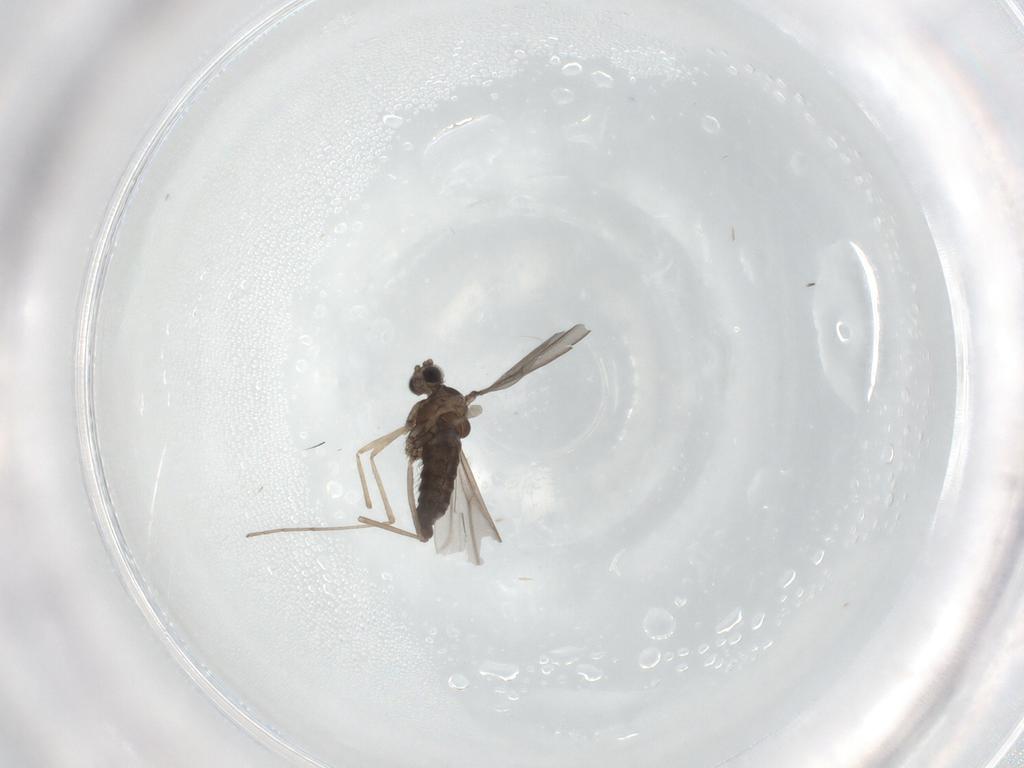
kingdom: Animalia
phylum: Arthropoda
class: Insecta
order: Diptera
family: Cecidomyiidae
